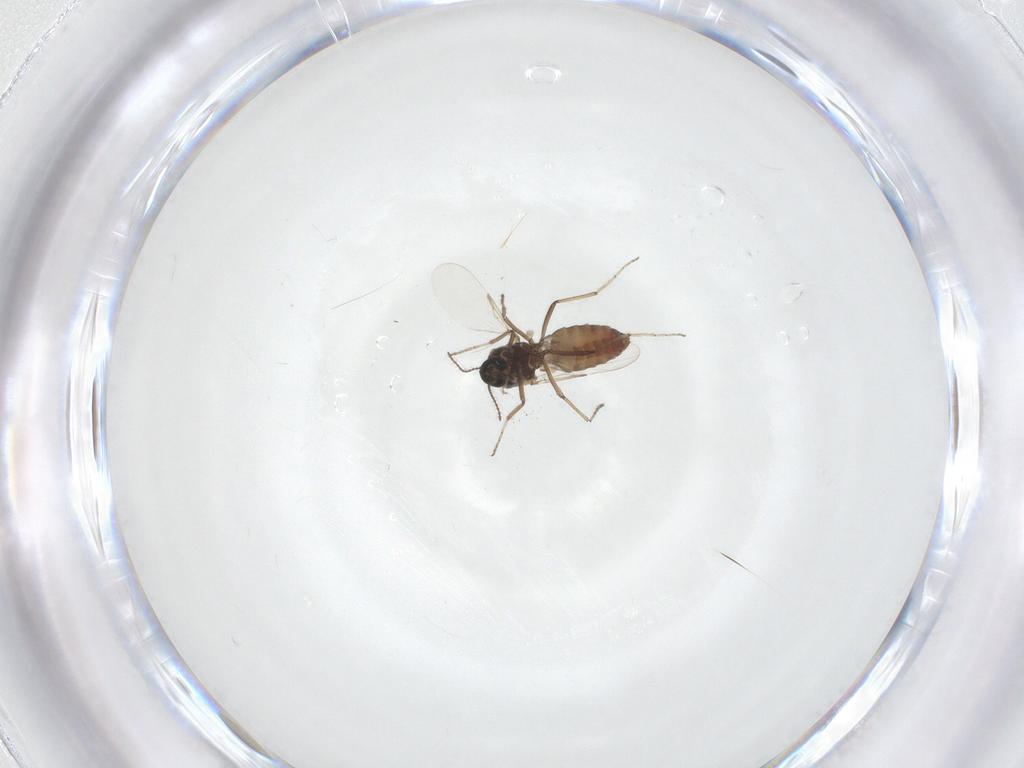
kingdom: Animalia
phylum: Arthropoda
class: Insecta
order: Diptera
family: Ceratopogonidae
